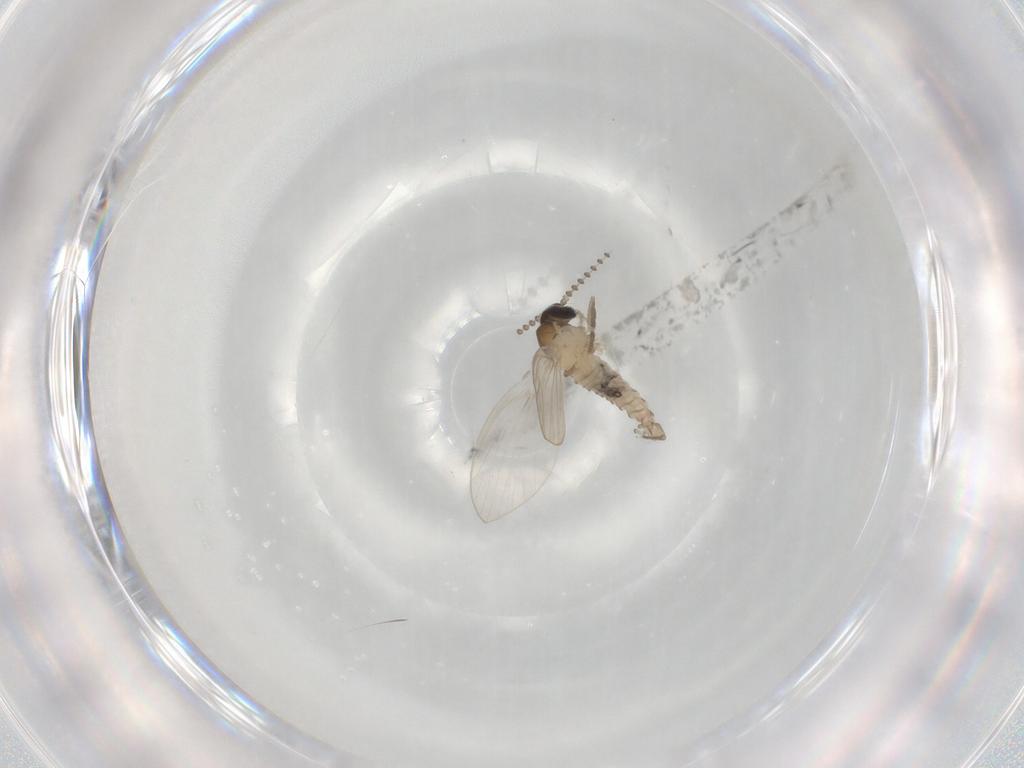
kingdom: Animalia
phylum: Arthropoda
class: Insecta
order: Diptera
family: Psychodidae
